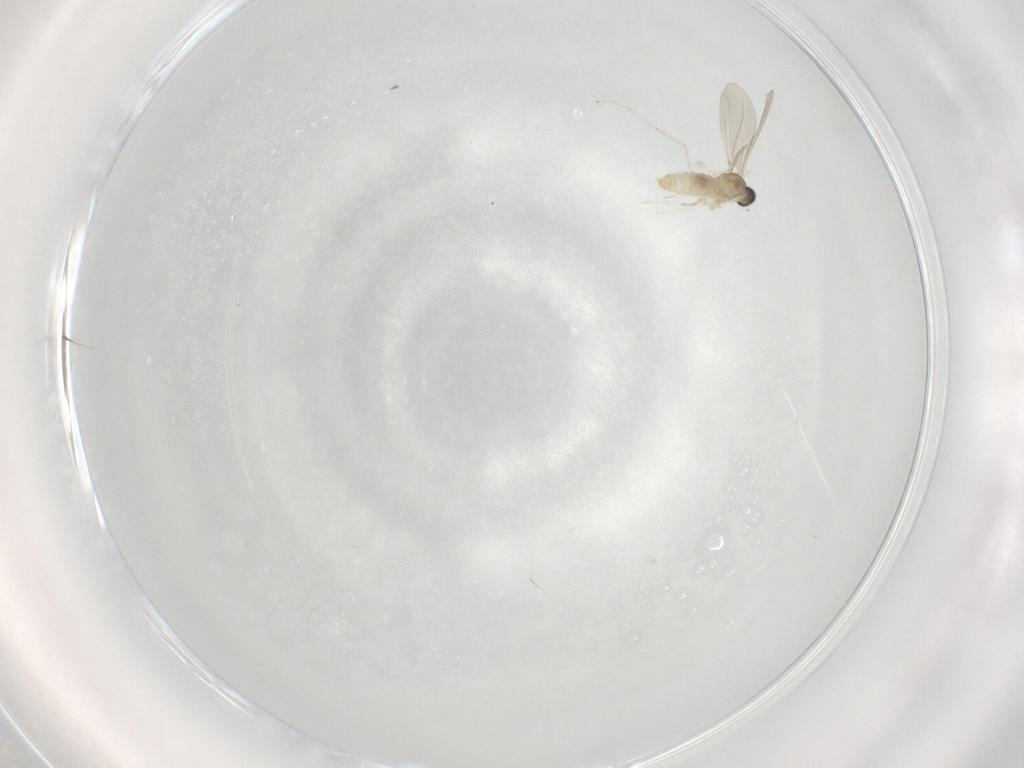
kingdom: Animalia
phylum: Arthropoda
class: Insecta
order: Diptera
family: Cecidomyiidae
